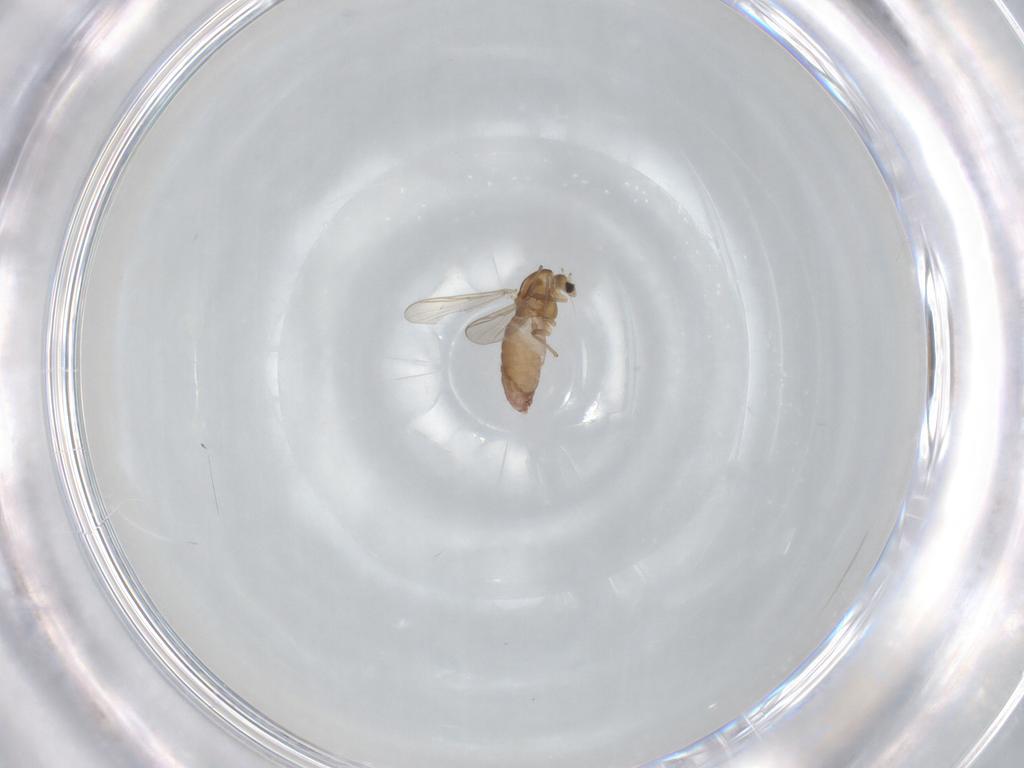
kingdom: Animalia
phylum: Arthropoda
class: Insecta
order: Diptera
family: Chironomidae
